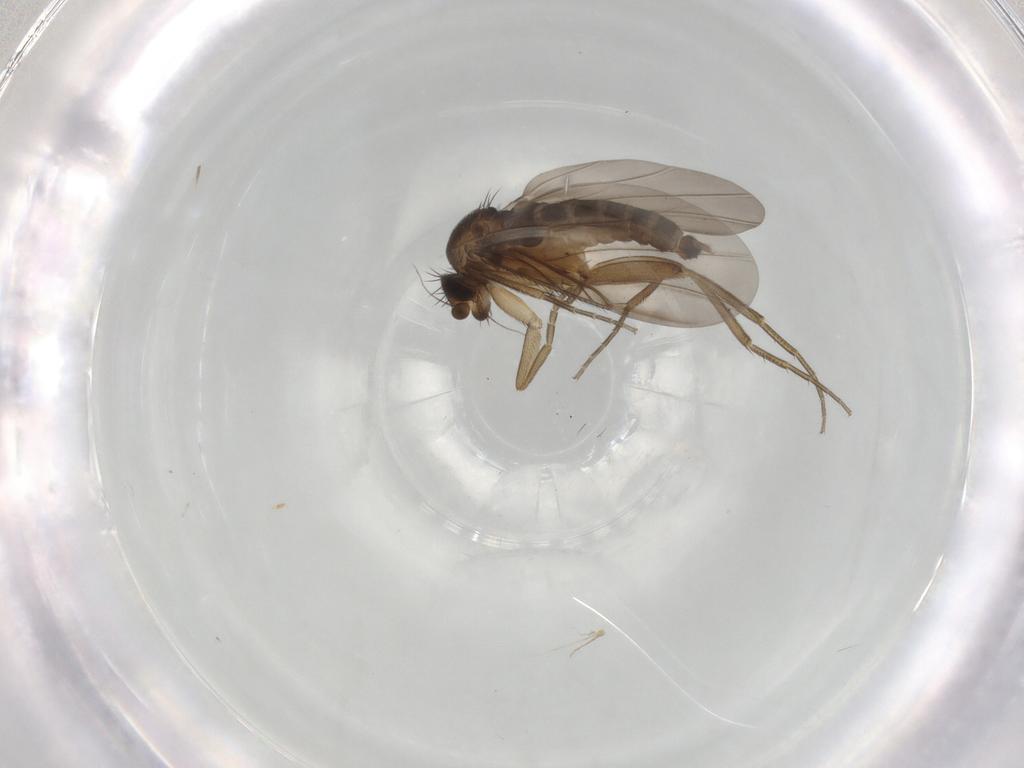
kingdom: Animalia
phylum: Arthropoda
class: Insecta
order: Diptera
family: Phoridae
